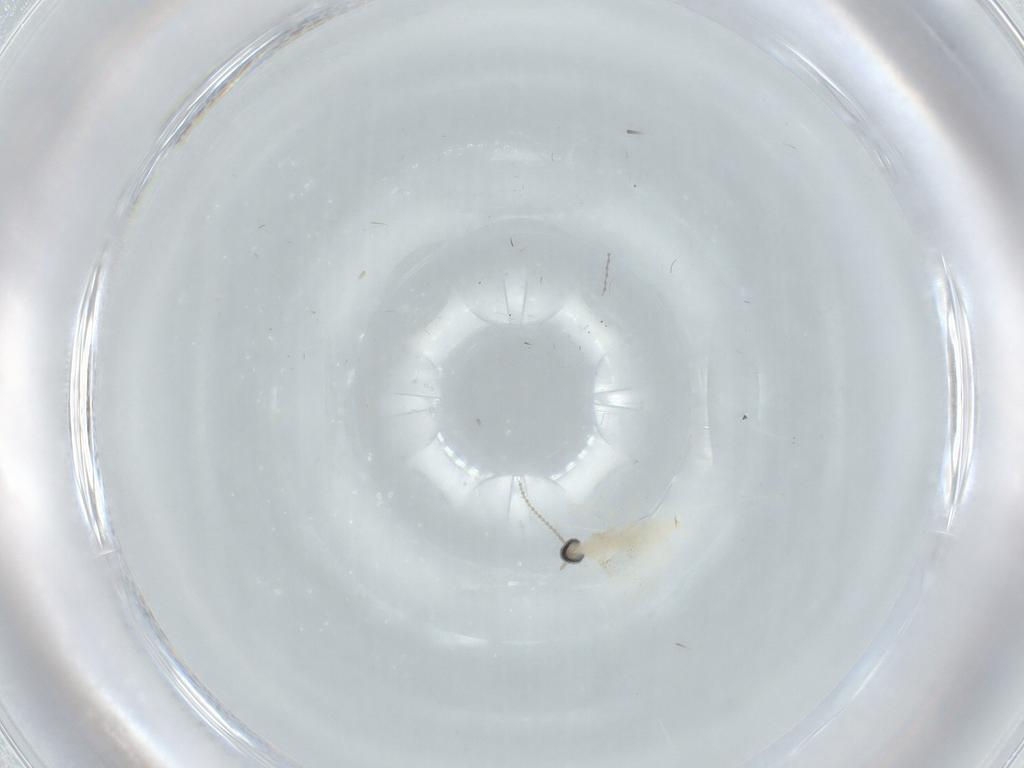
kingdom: Animalia
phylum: Arthropoda
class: Insecta
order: Diptera
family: Cecidomyiidae
